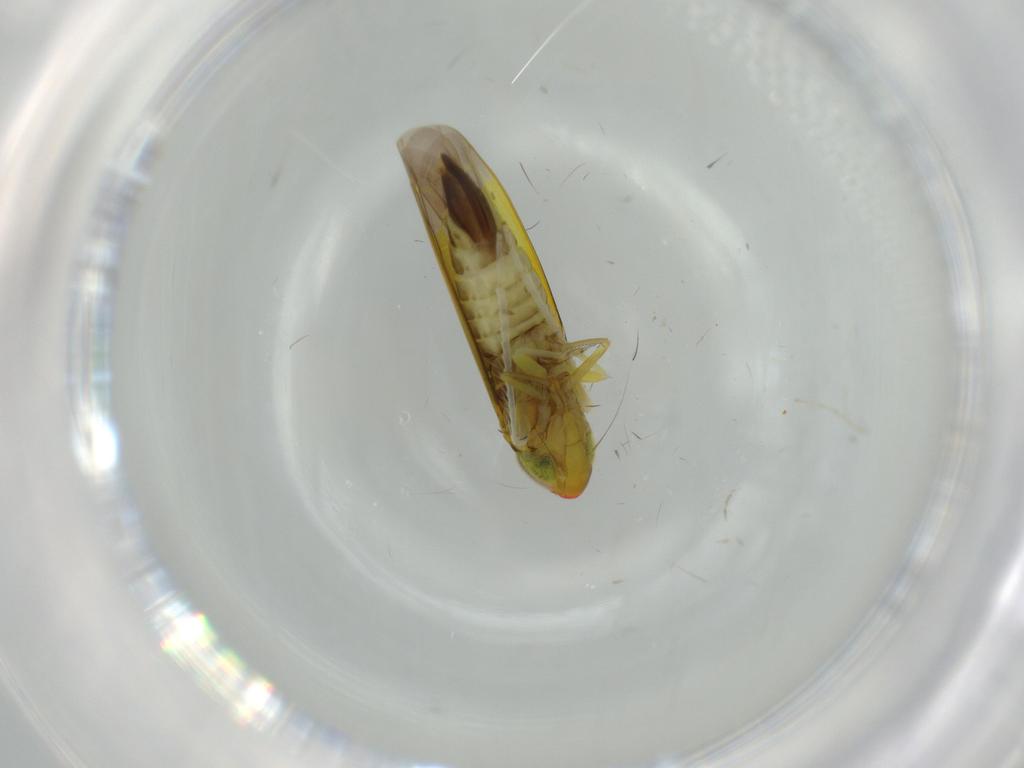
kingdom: Animalia
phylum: Arthropoda
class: Insecta
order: Hemiptera
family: Cicadellidae
